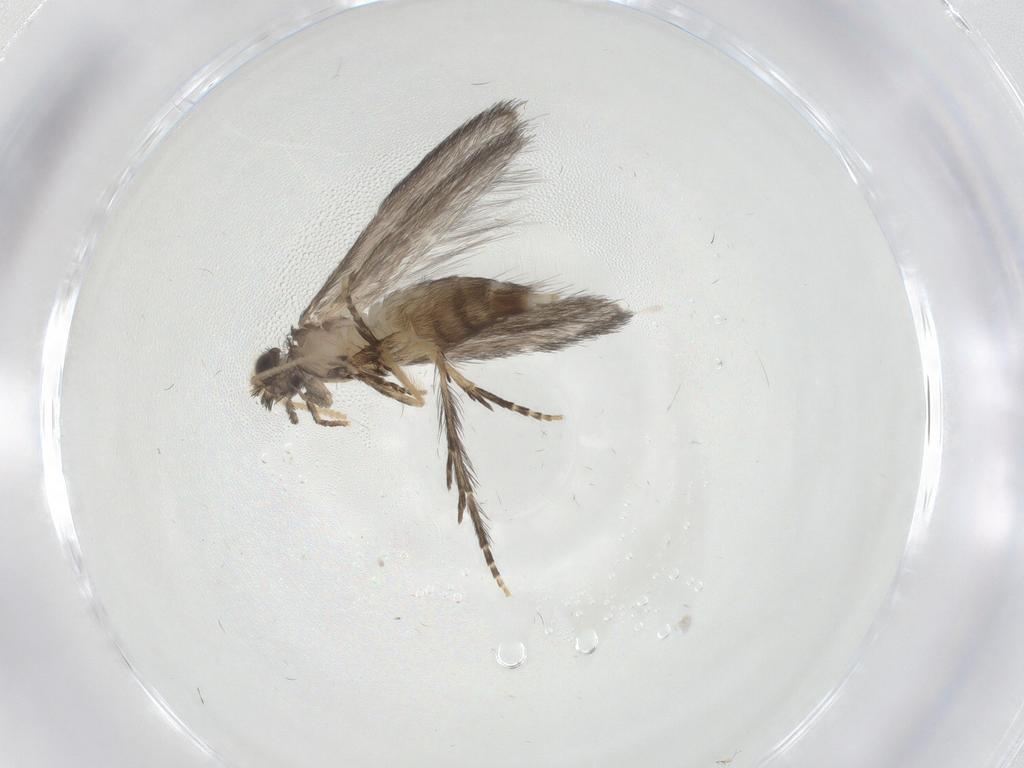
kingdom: Animalia
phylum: Arthropoda
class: Insecta
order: Trichoptera
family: Hydroptilidae
